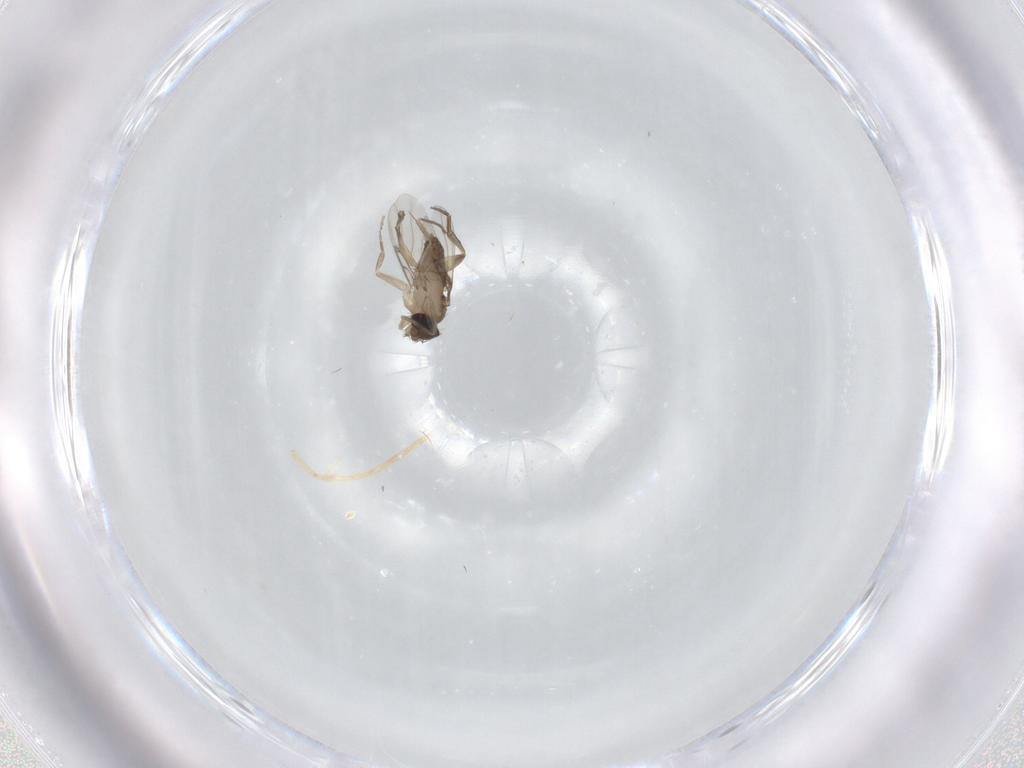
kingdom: Animalia
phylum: Arthropoda
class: Insecta
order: Diptera
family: Phoridae
